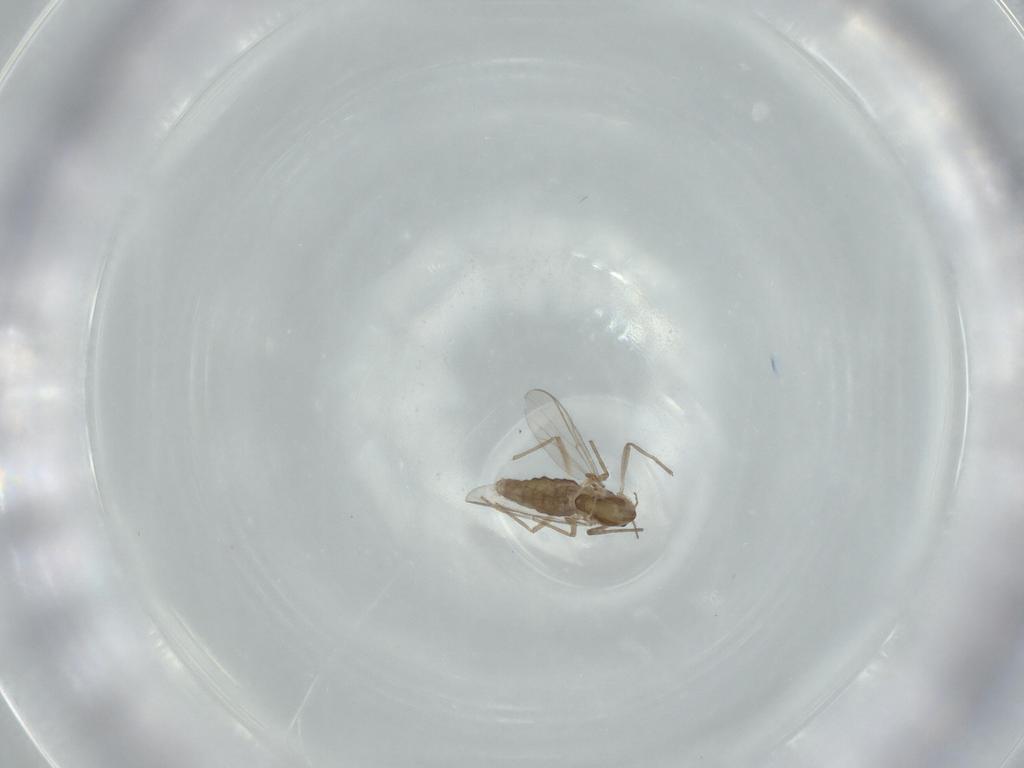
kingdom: Animalia
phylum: Arthropoda
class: Insecta
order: Diptera
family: Chironomidae
